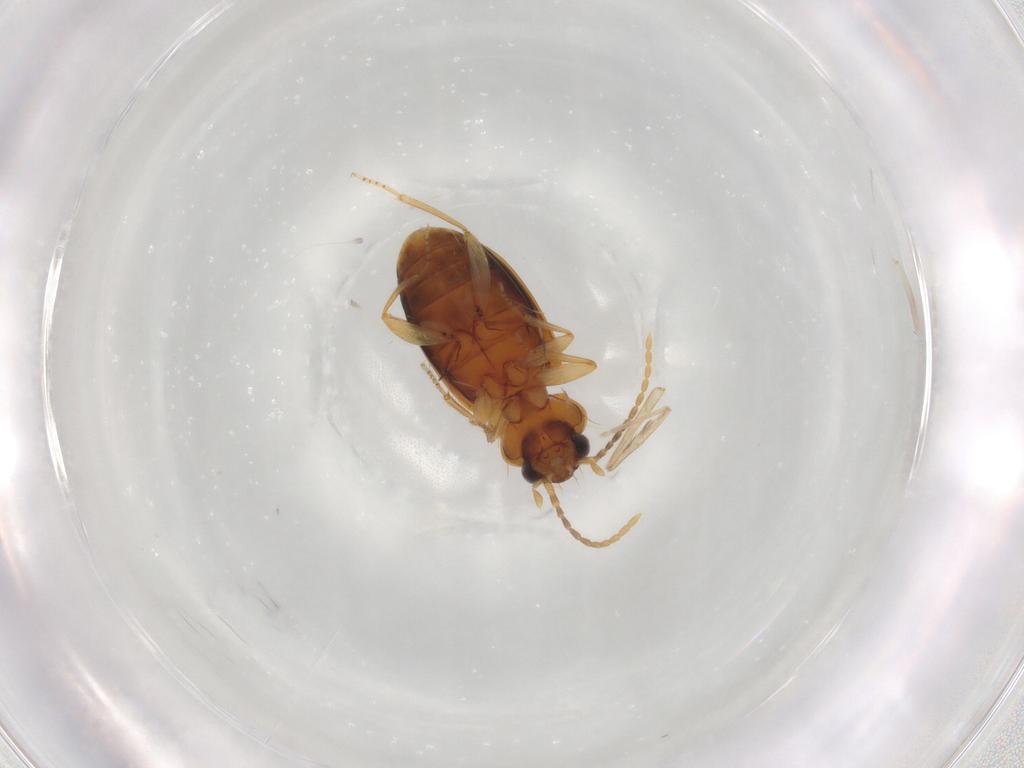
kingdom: Animalia
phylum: Arthropoda
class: Insecta
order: Coleoptera
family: Carabidae
